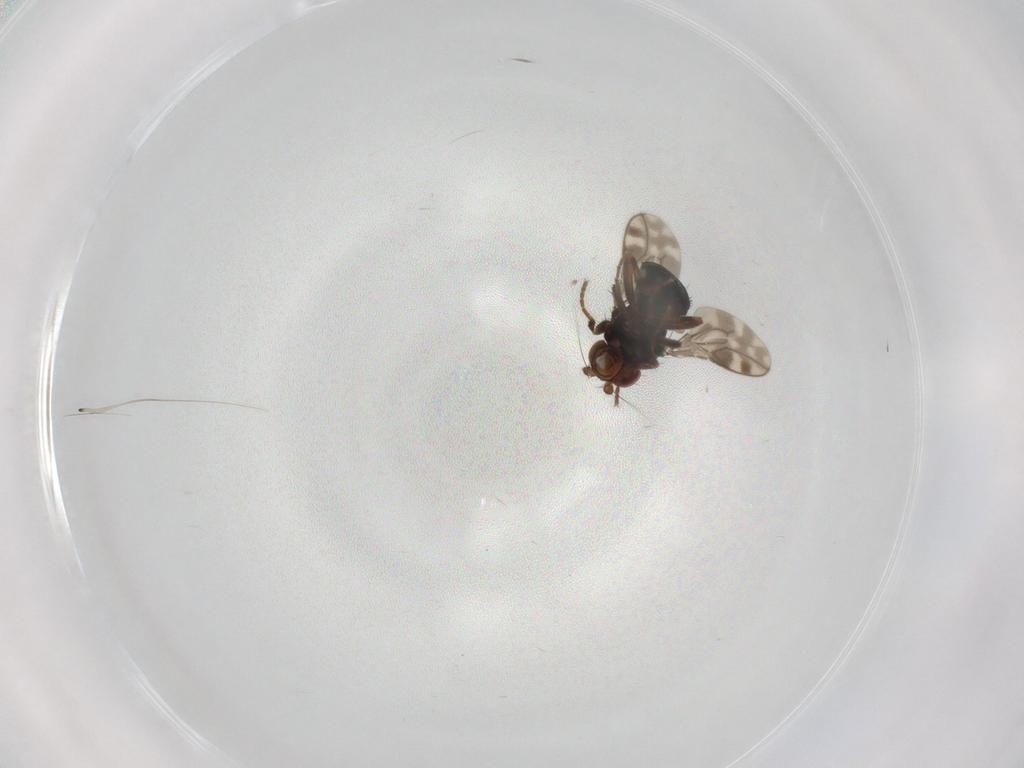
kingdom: Animalia
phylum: Arthropoda
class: Insecta
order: Diptera
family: Sphaeroceridae
